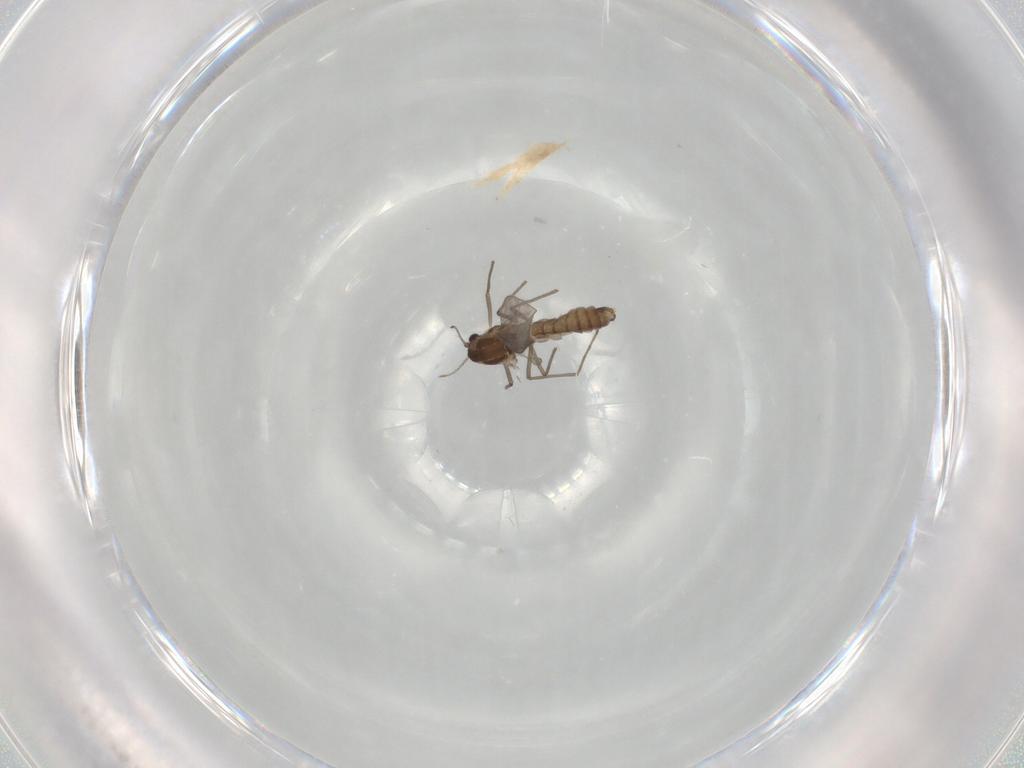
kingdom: Animalia
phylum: Arthropoda
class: Insecta
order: Diptera
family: Chironomidae
